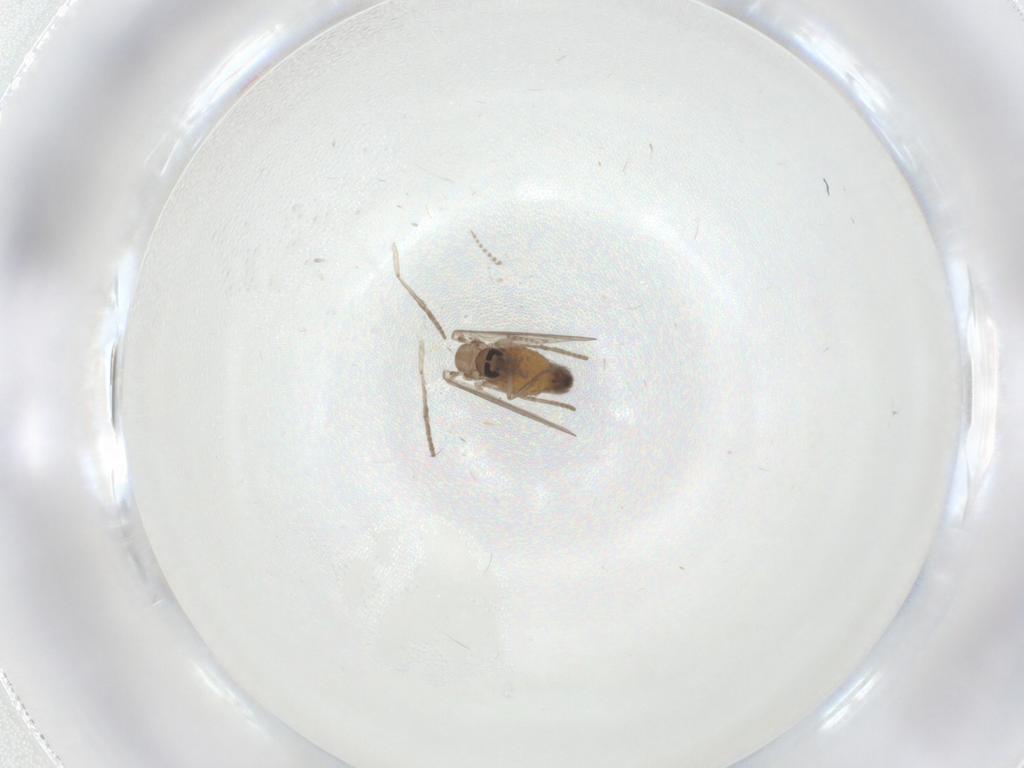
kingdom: Animalia
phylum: Arthropoda
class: Insecta
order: Diptera
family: Psychodidae
